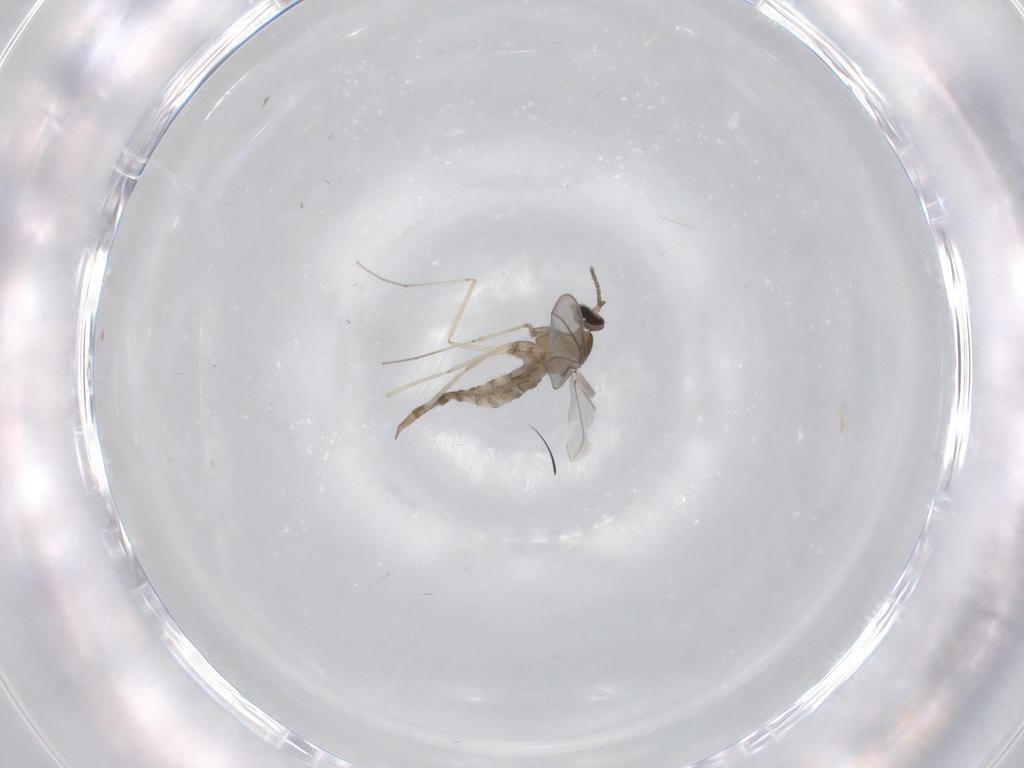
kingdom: Animalia
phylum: Arthropoda
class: Insecta
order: Diptera
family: Cecidomyiidae
